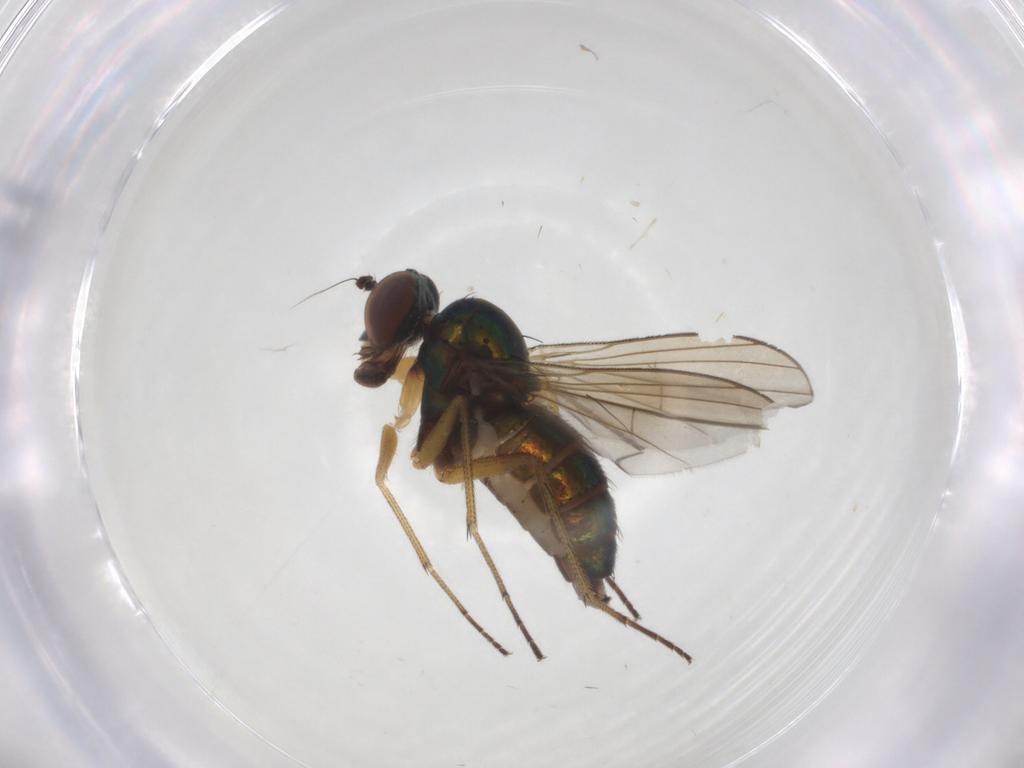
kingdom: Animalia
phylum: Arthropoda
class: Insecta
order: Diptera
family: Dolichopodidae
